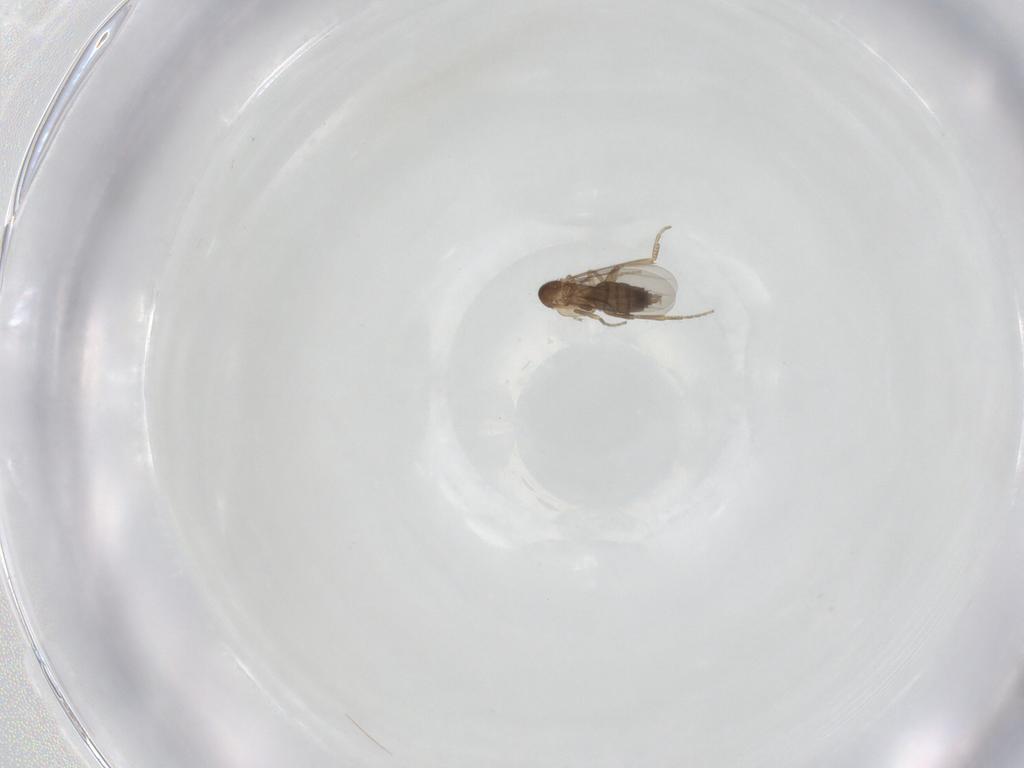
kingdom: Animalia
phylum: Arthropoda
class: Insecta
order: Diptera
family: Phoridae
